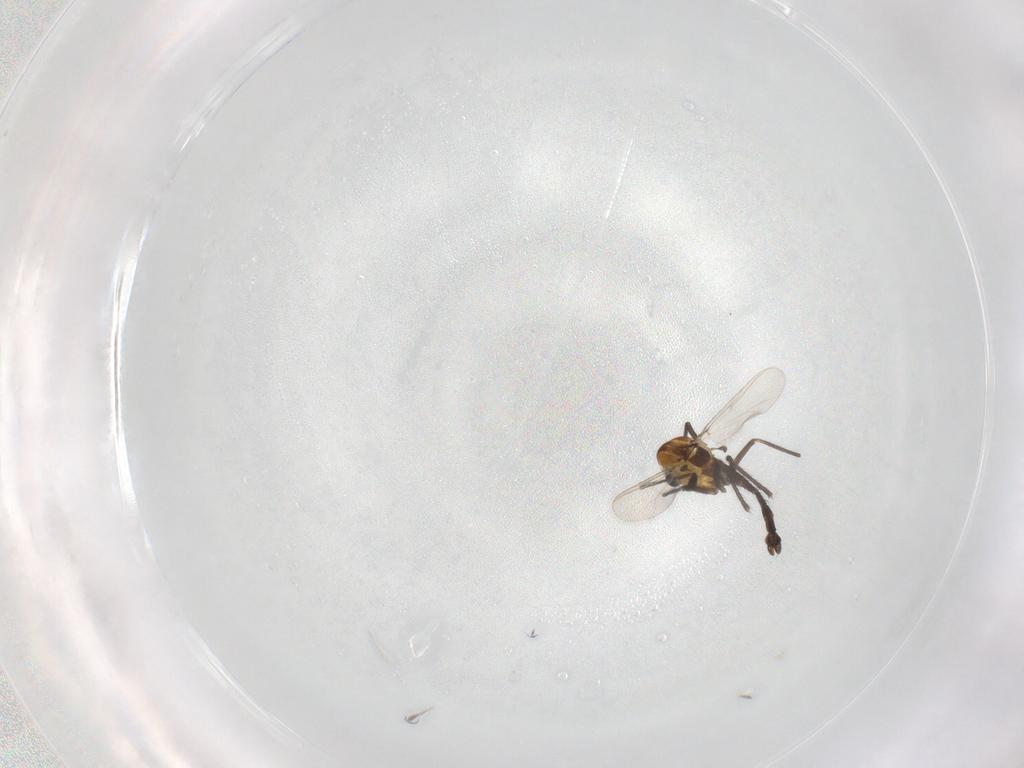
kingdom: Animalia
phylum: Arthropoda
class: Insecta
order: Diptera
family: Chironomidae
